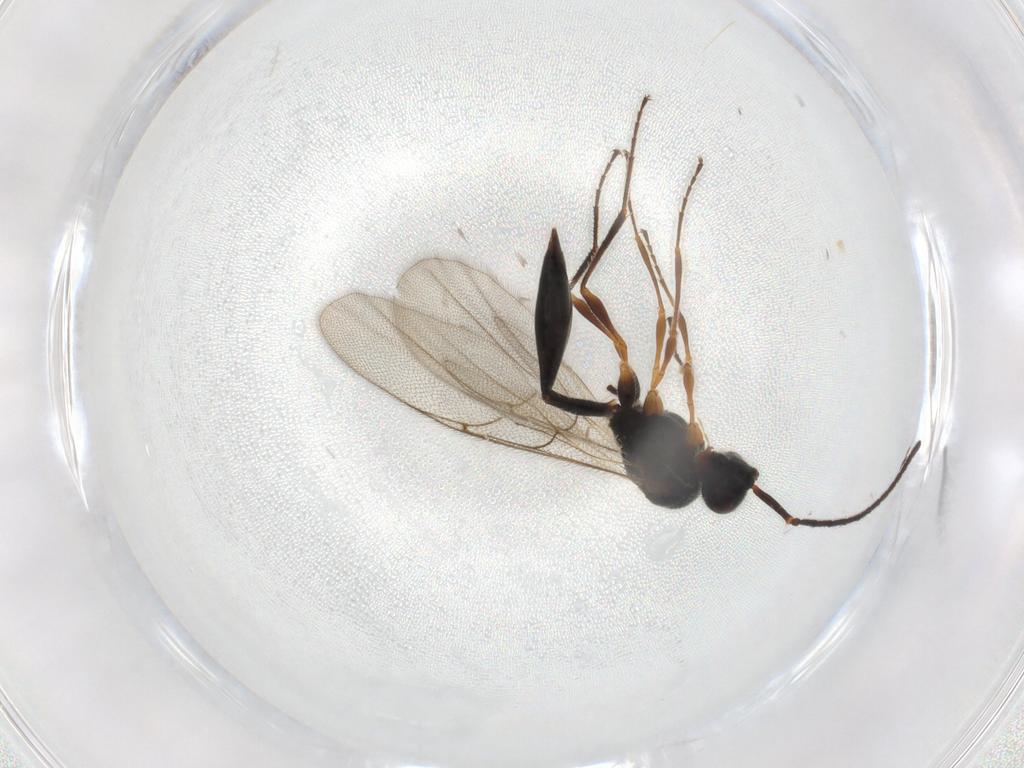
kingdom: Animalia
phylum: Arthropoda
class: Insecta
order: Hymenoptera
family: Diapriidae
